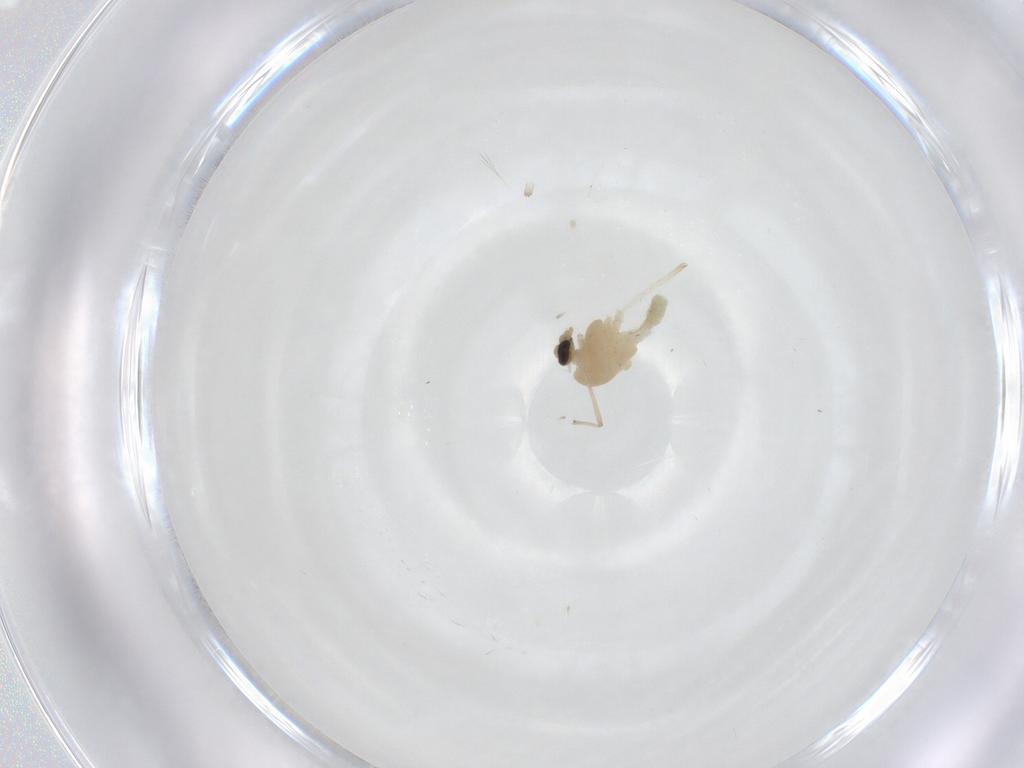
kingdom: Animalia
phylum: Arthropoda
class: Insecta
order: Diptera
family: Chironomidae
